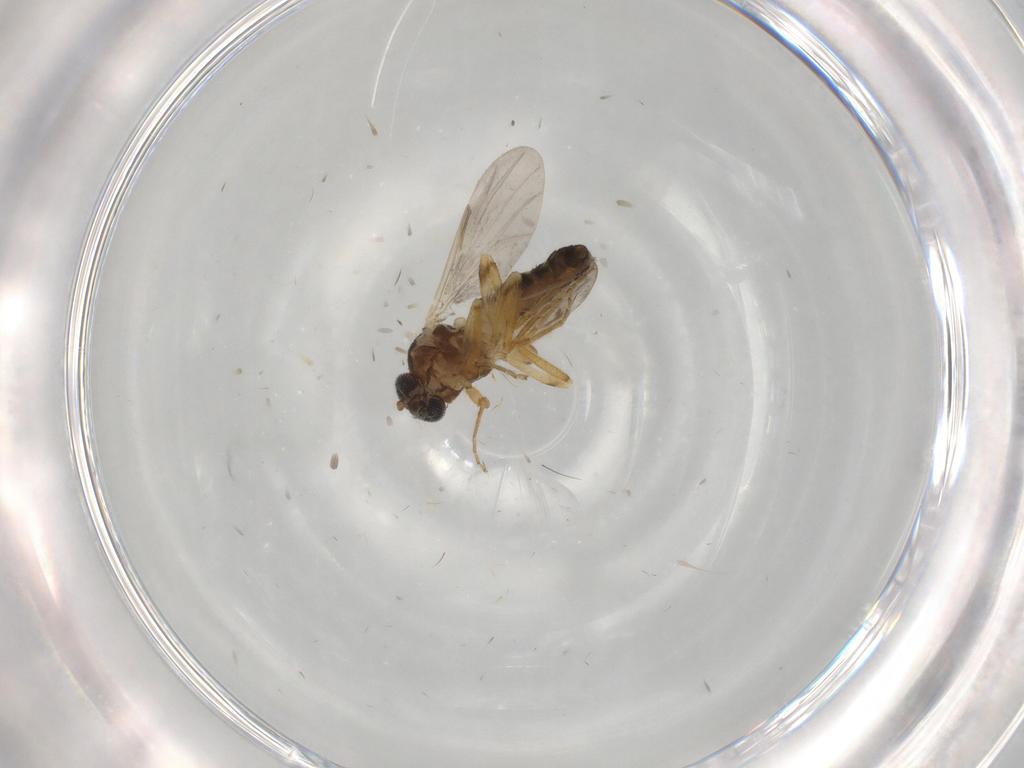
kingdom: Animalia
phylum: Arthropoda
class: Insecta
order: Diptera
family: Ceratopogonidae
